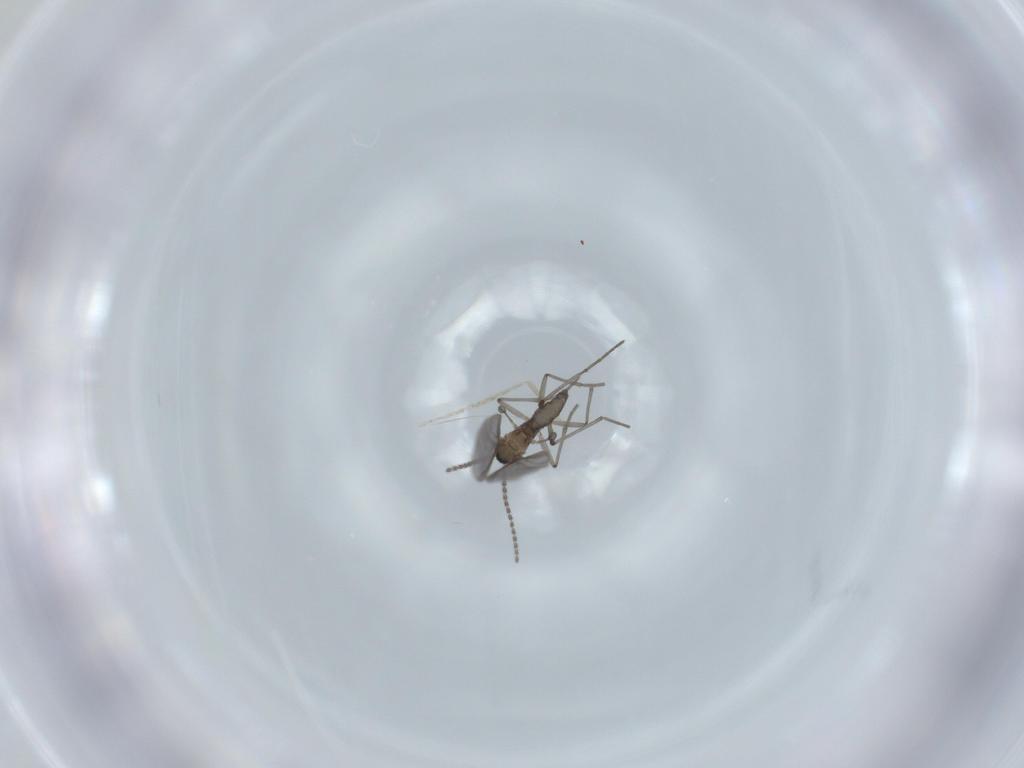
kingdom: Animalia
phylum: Arthropoda
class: Insecta
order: Diptera
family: Sciaridae
